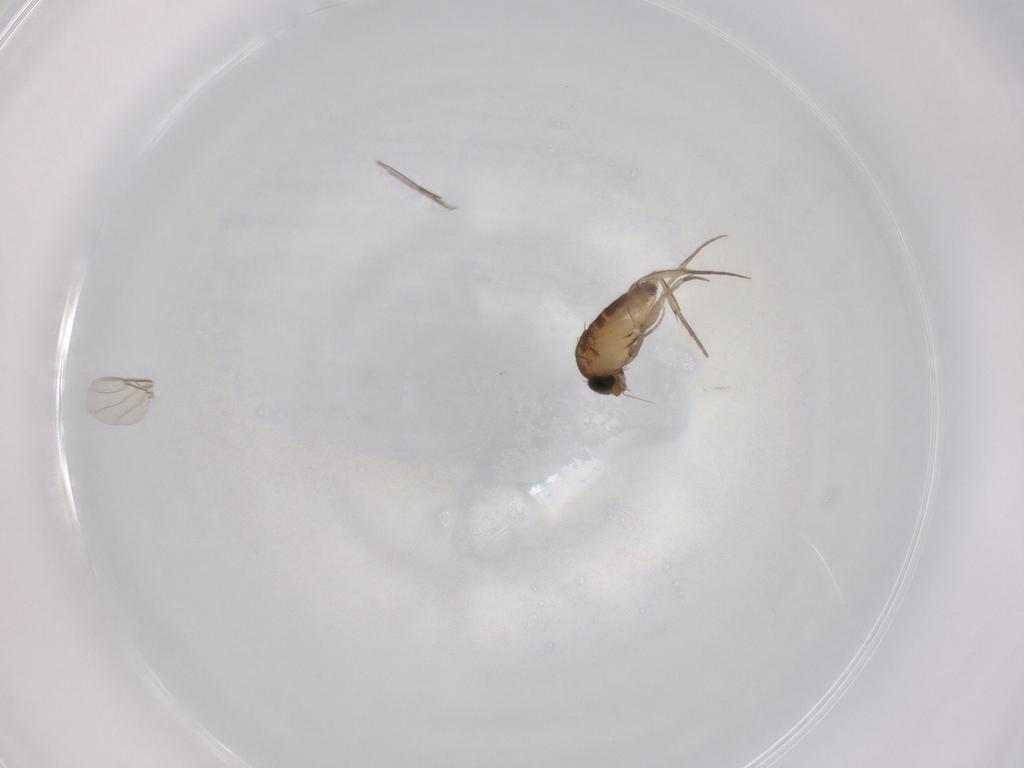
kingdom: Animalia
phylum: Arthropoda
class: Insecta
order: Diptera
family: Phoridae
